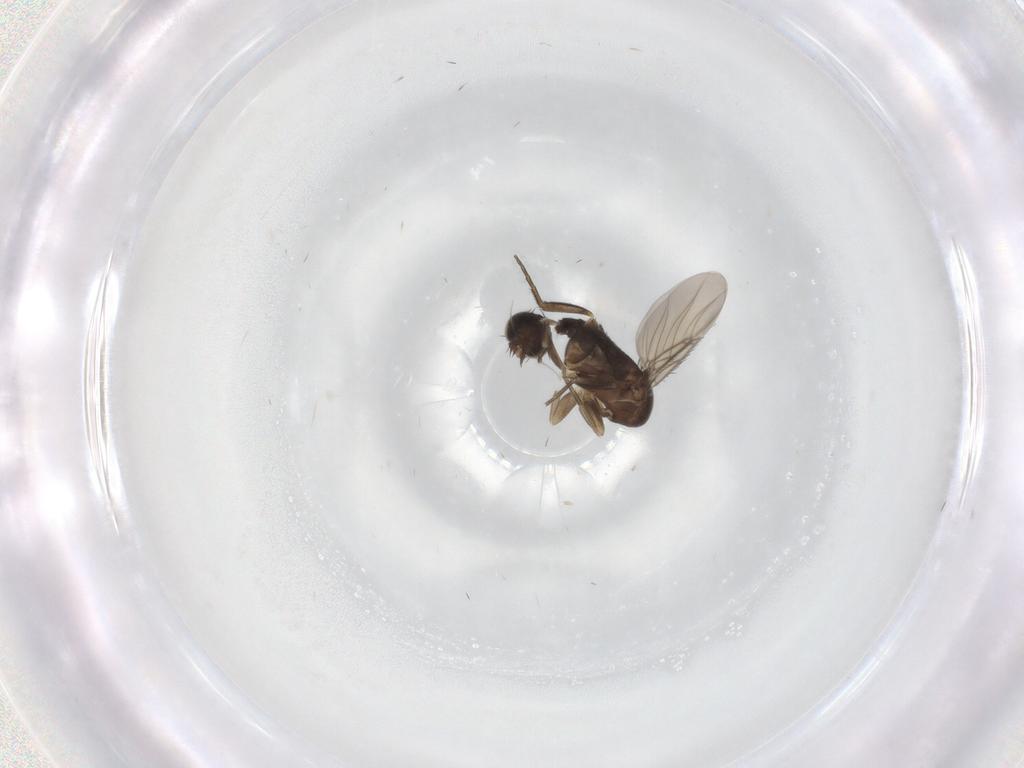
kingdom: Animalia
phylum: Arthropoda
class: Insecta
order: Diptera
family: Phoridae
